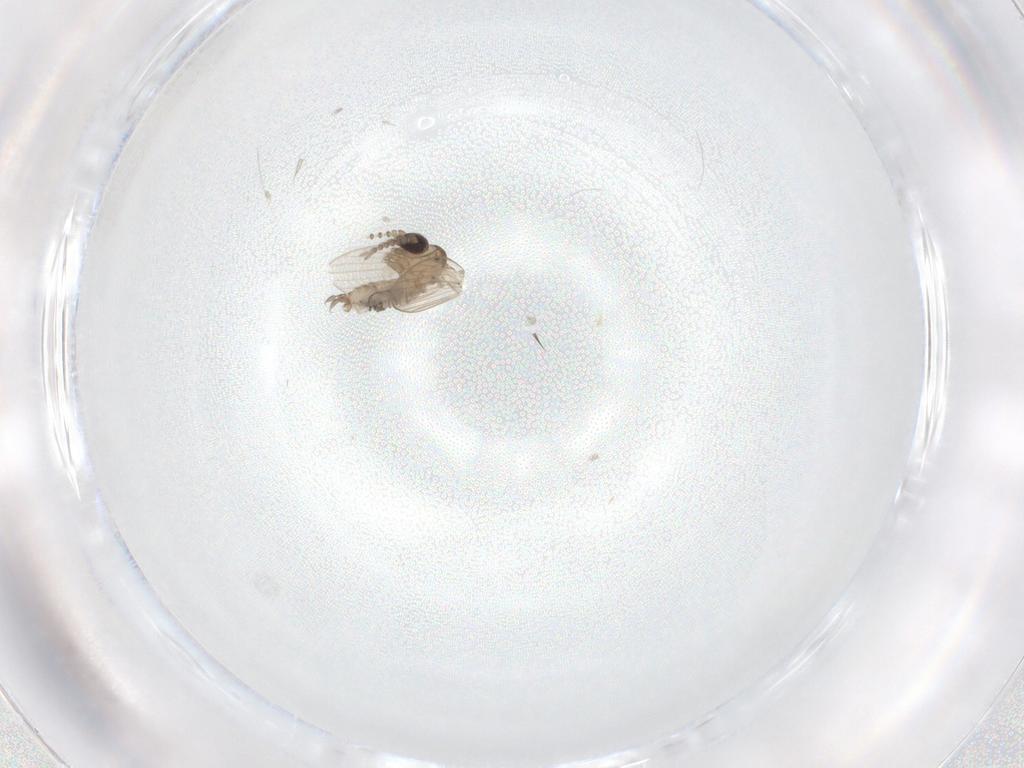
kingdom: Animalia
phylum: Arthropoda
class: Insecta
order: Diptera
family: Psychodidae
